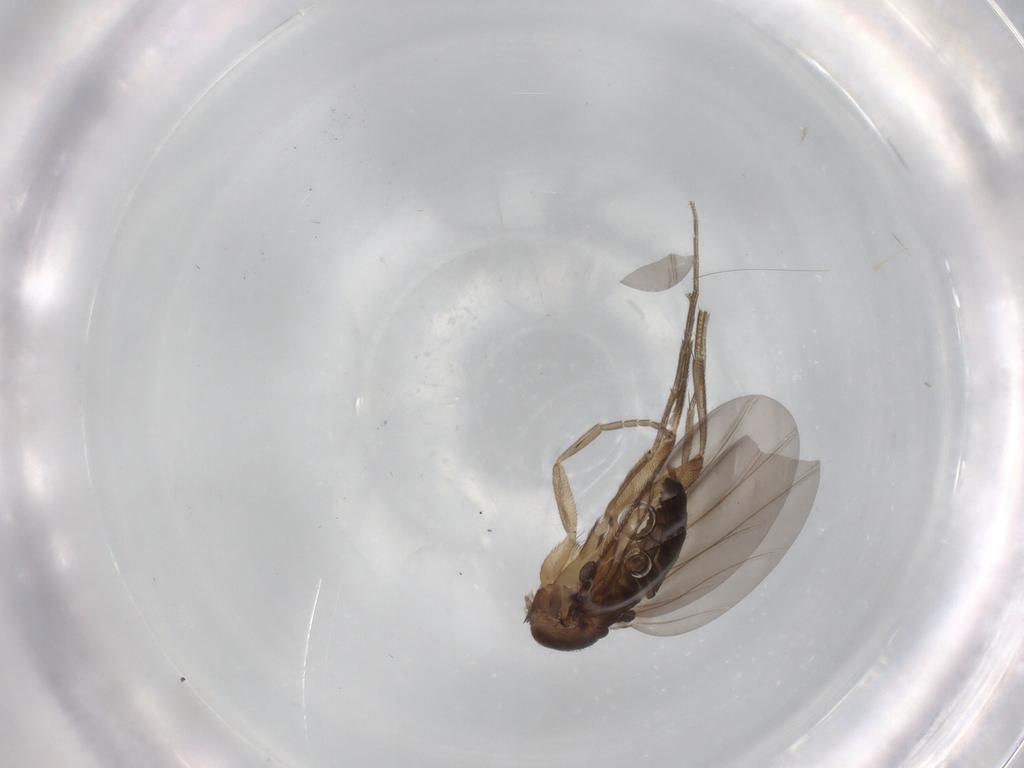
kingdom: Animalia
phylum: Arthropoda
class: Insecta
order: Diptera
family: Phoridae
